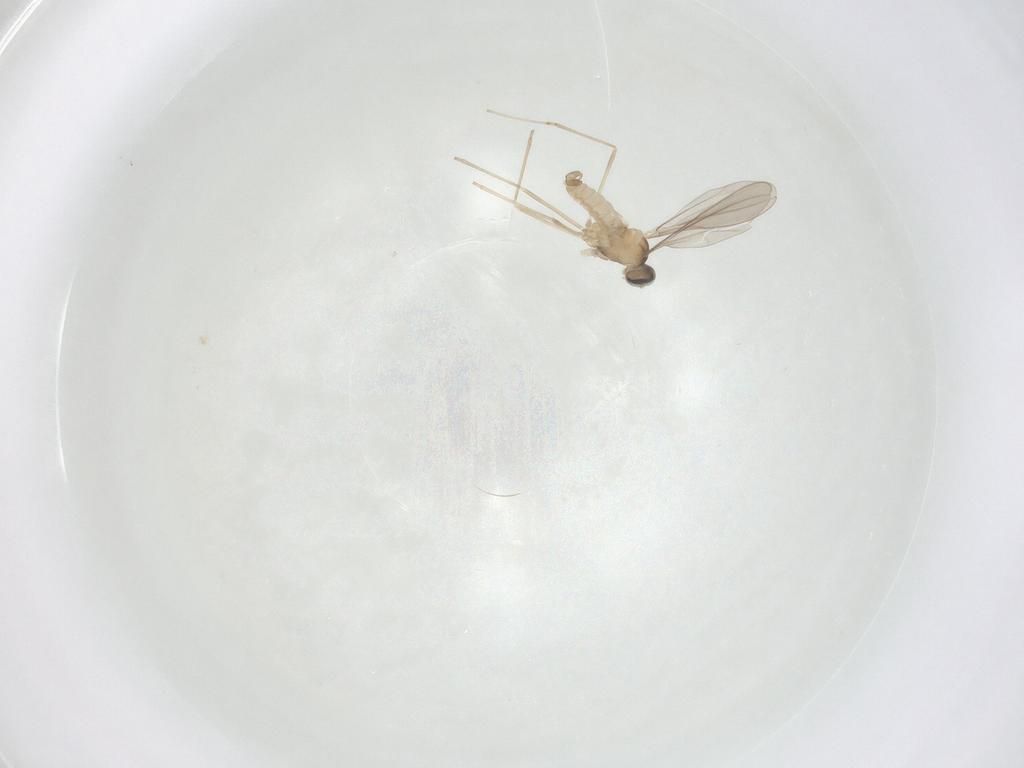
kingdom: Animalia
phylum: Arthropoda
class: Insecta
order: Diptera
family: Cecidomyiidae
